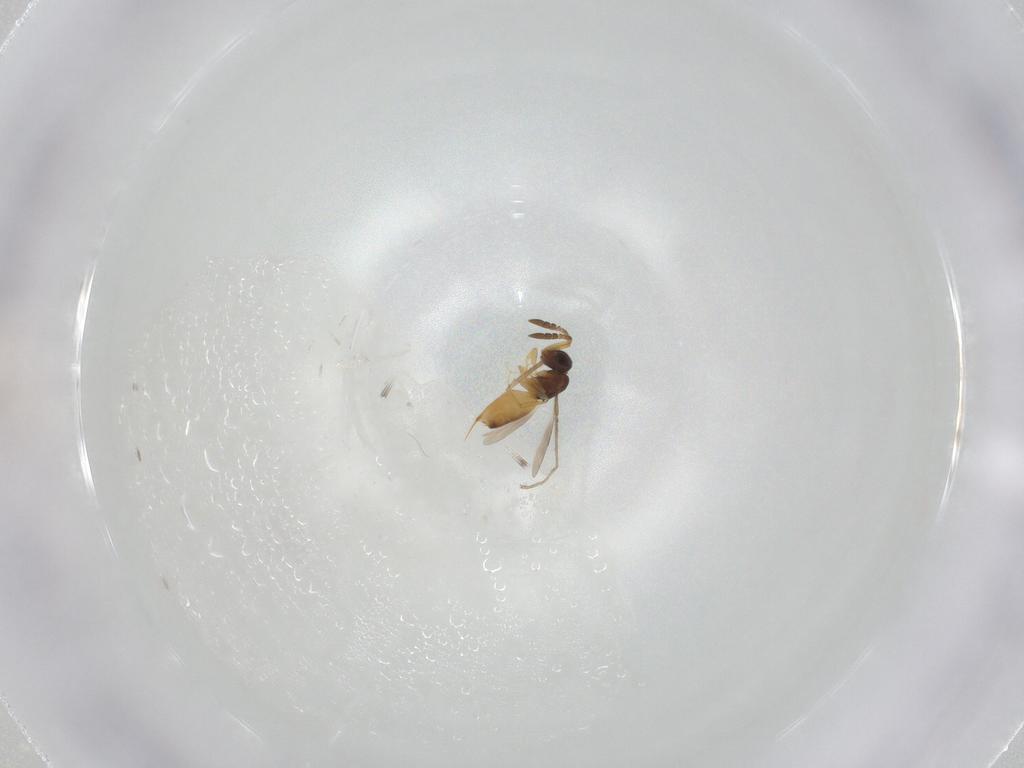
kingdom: Animalia
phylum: Arthropoda
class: Insecta
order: Hymenoptera
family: Ceraphronidae
